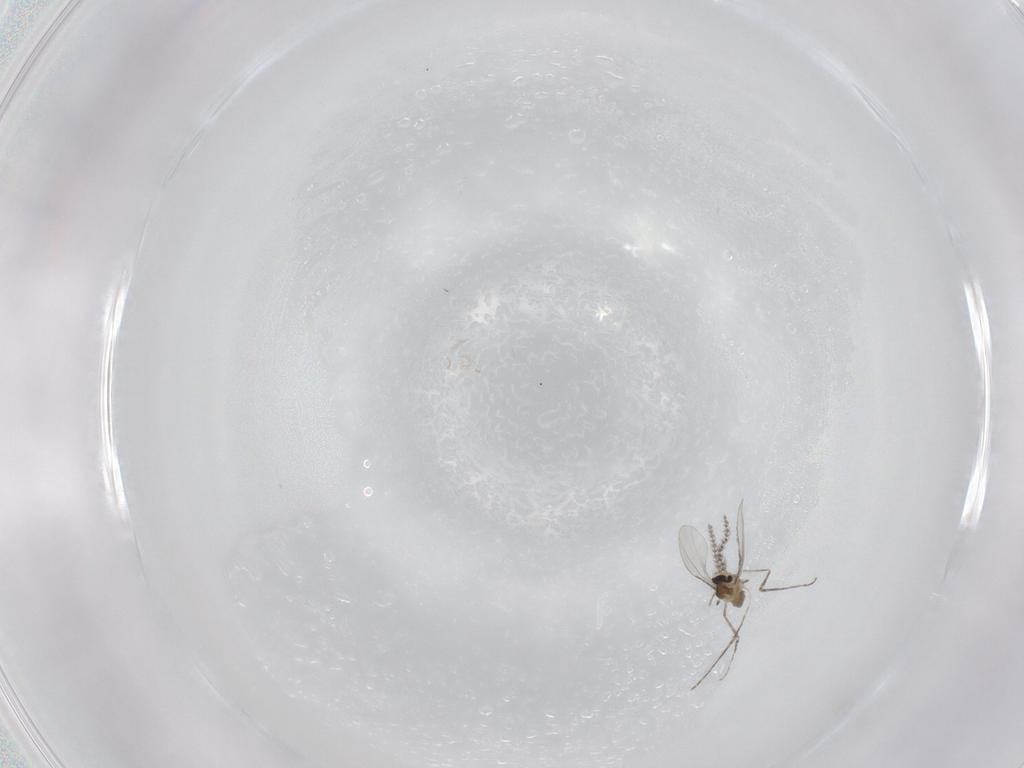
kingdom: Animalia
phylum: Arthropoda
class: Insecta
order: Diptera
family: Cecidomyiidae
